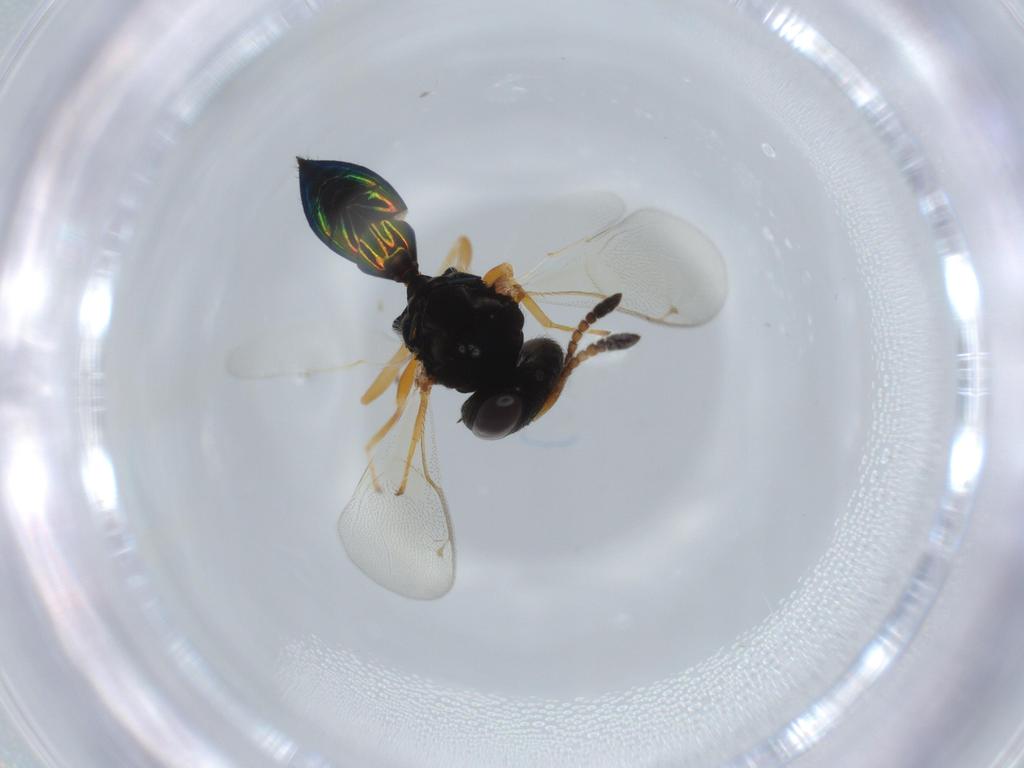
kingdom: Animalia
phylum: Arthropoda
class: Insecta
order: Hymenoptera
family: Pteromalidae
